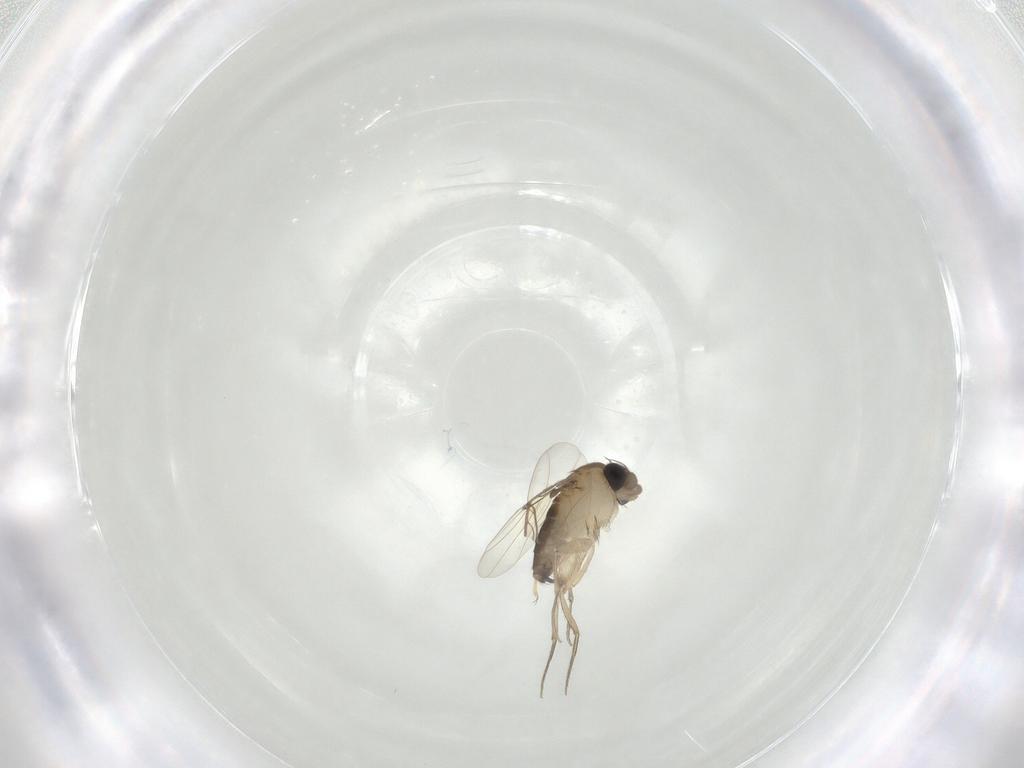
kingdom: Animalia
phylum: Arthropoda
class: Insecta
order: Diptera
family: Phoridae
